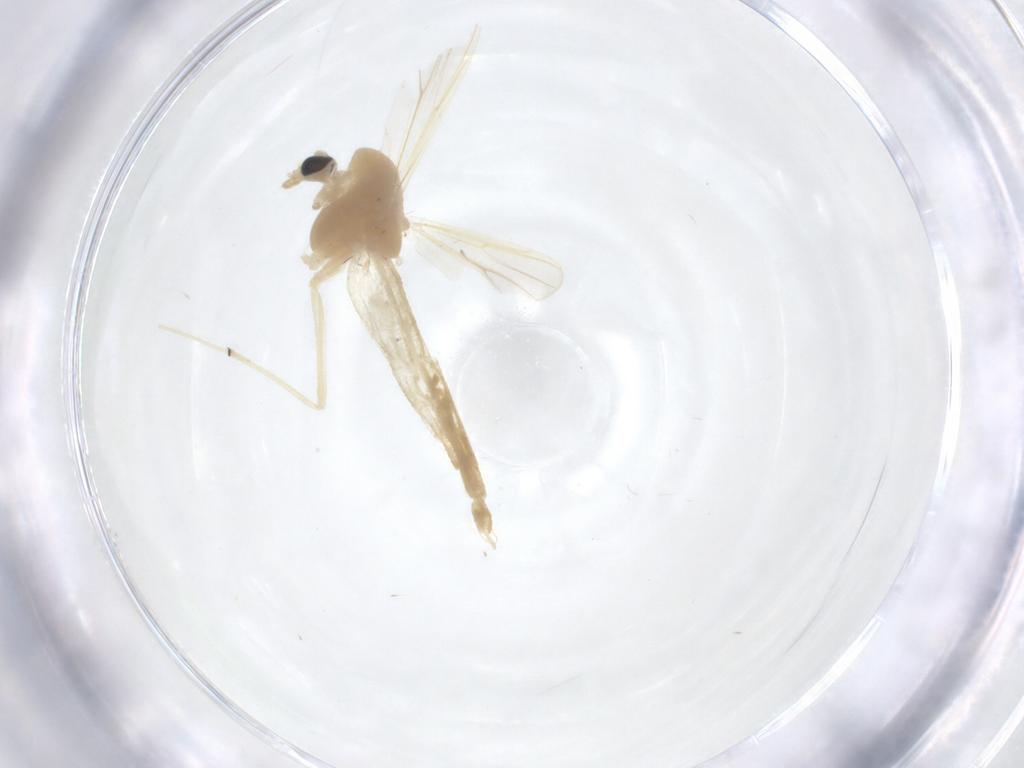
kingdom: Animalia
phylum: Arthropoda
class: Insecta
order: Diptera
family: Chironomidae
